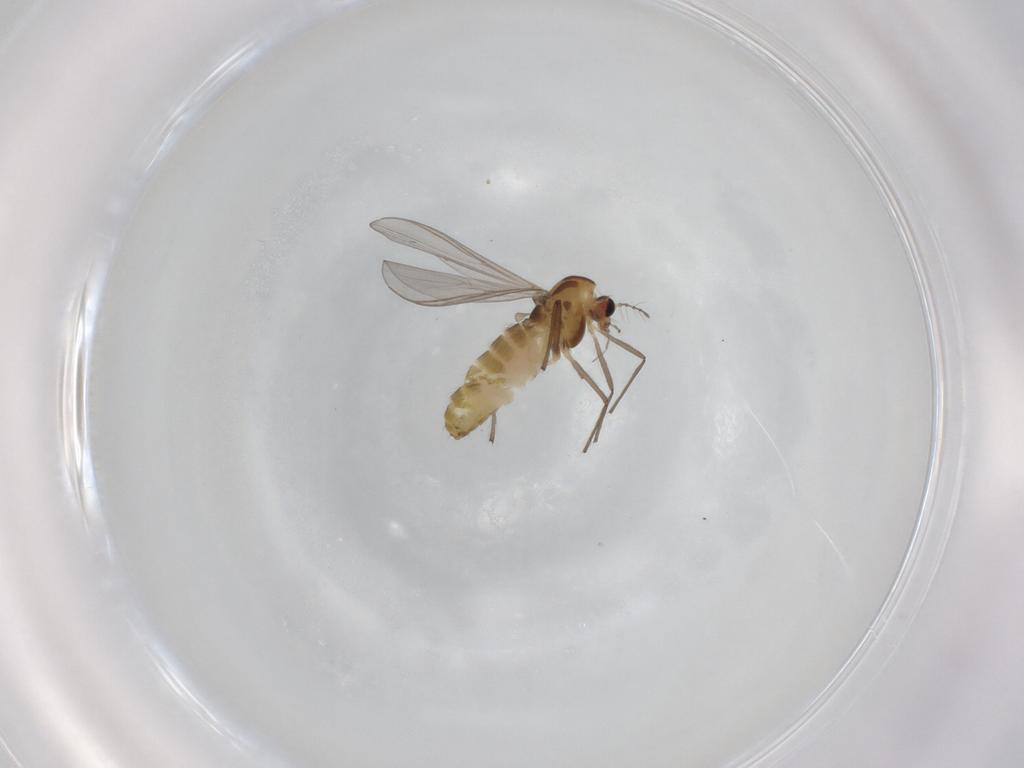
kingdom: Animalia
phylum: Arthropoda
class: Insecta
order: Diptera
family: Chironomidae
